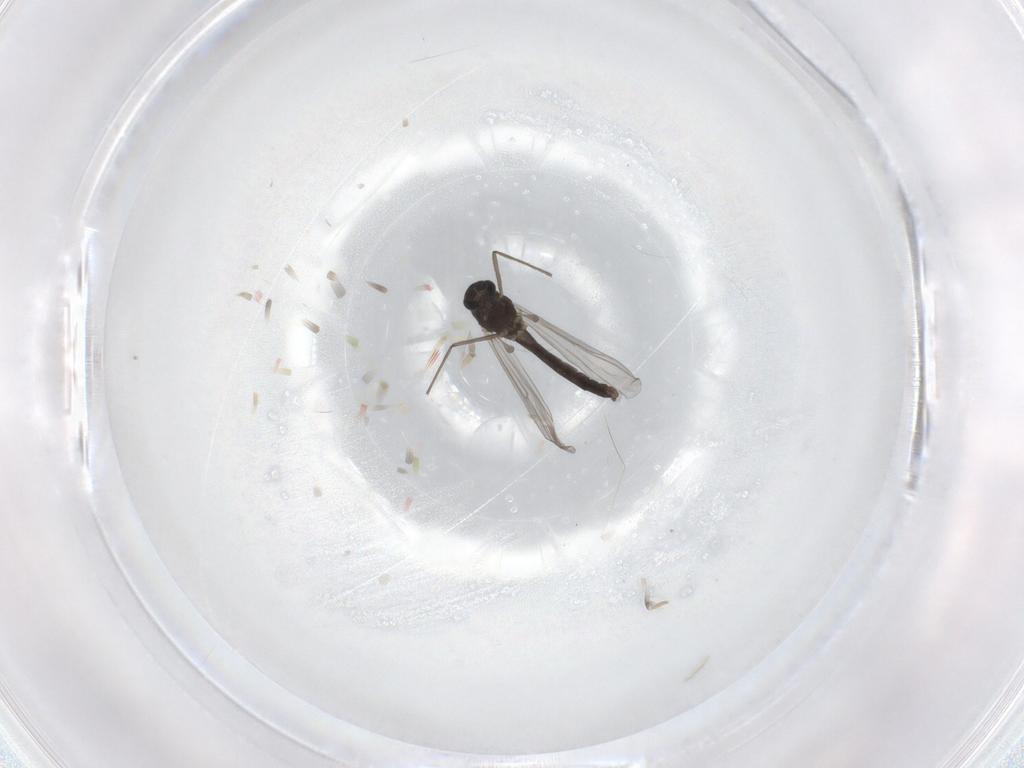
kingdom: Animalia
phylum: Arthropoda
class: Insecta
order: Diptera
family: Chironomidae
